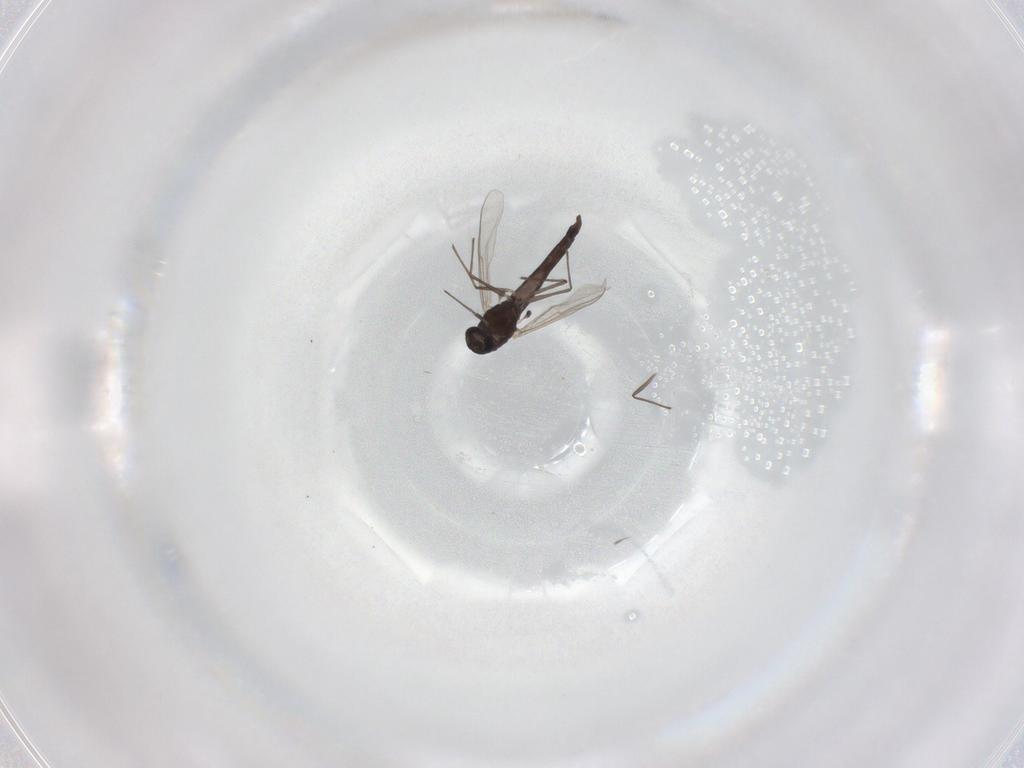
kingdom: Animalia
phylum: Arthropoda
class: Insecta
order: Diptera
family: Chironomidae
